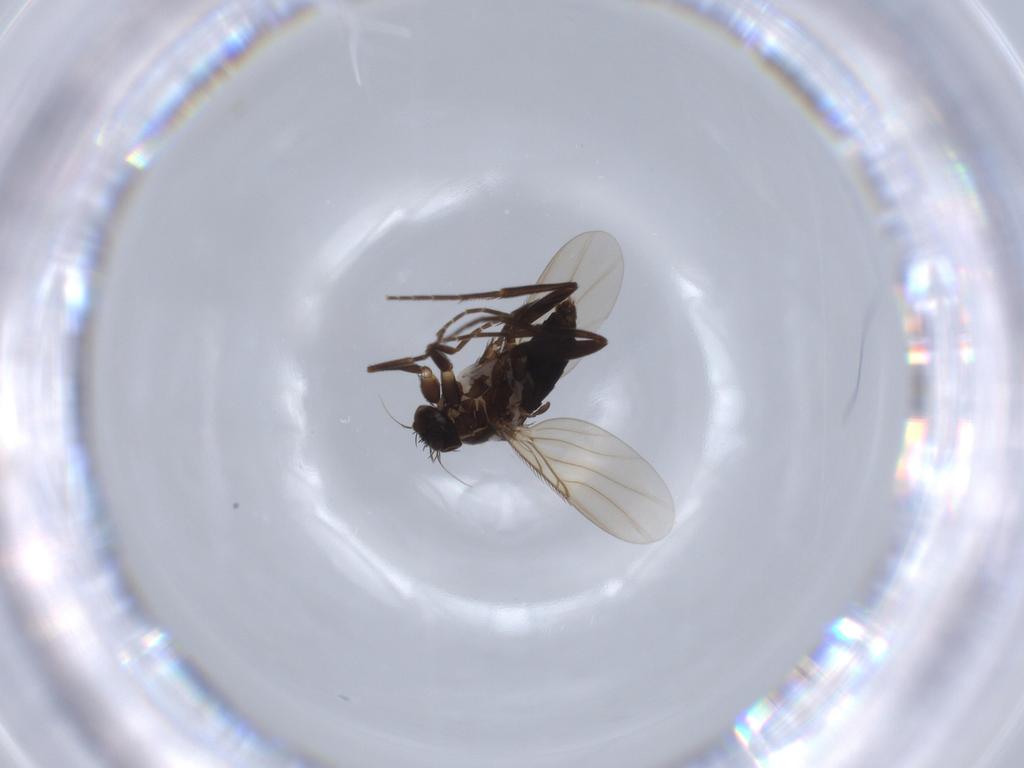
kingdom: Animalia
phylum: Arthropoda
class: Insecta
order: Diptera
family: Phoridae
